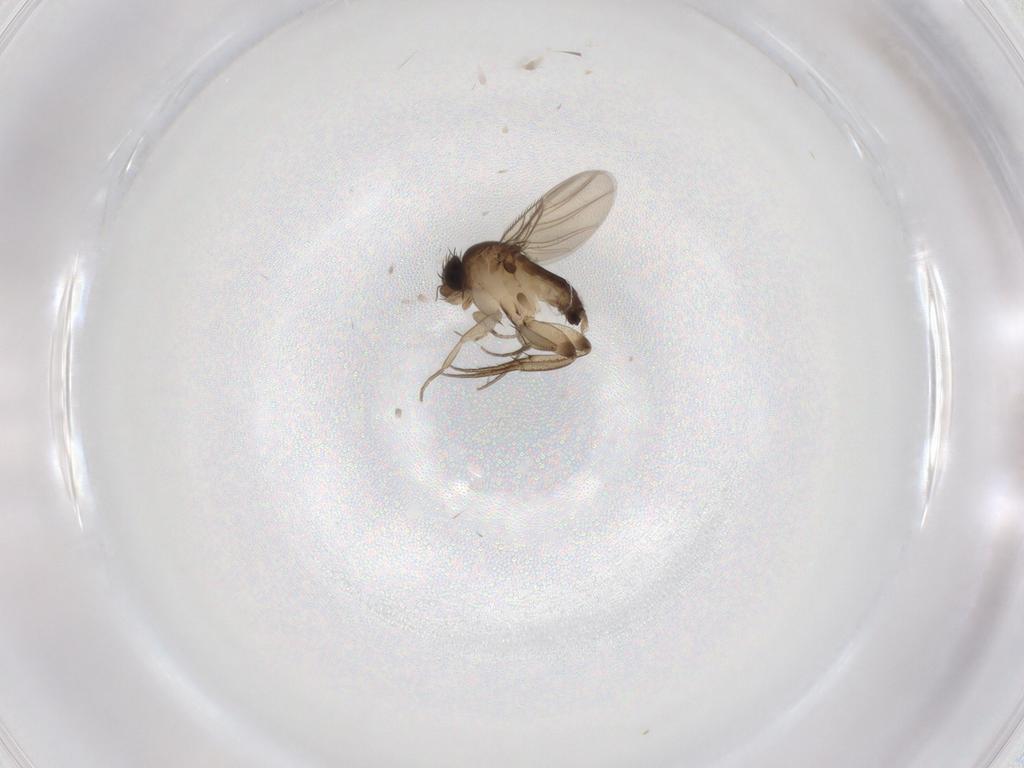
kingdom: Animalia
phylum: Arthropoda
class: Insecta
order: Diptera
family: Phoridae
